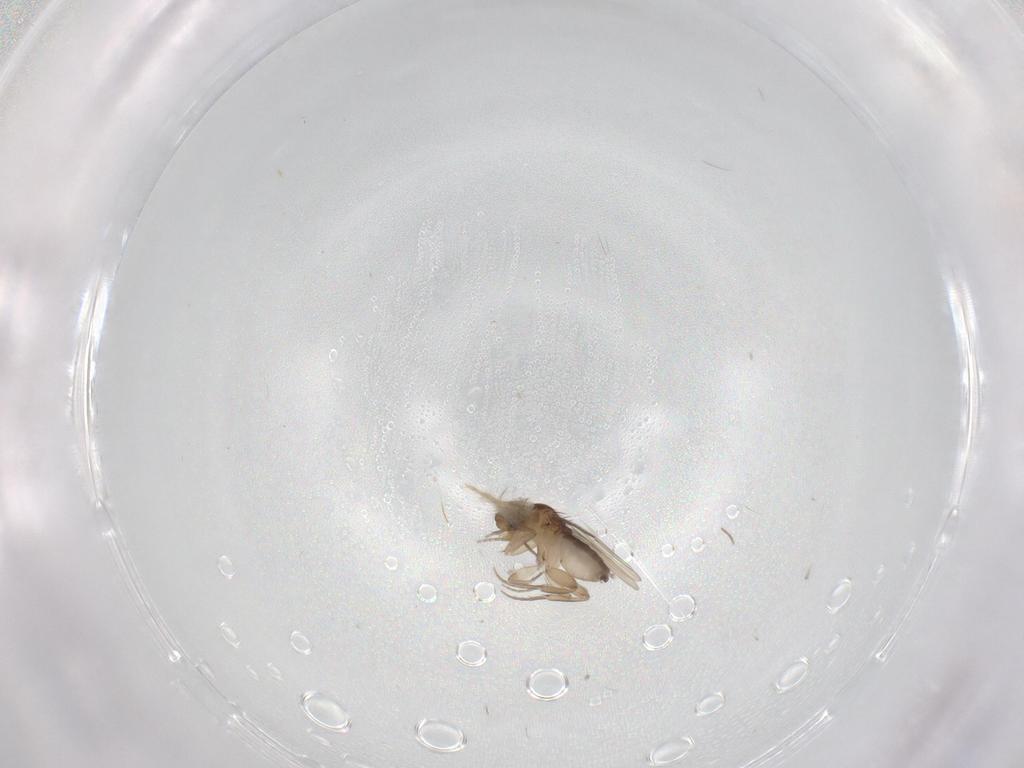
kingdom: Animalia
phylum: Arthropoda
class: Insecta
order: Diptera
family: Phoridae
